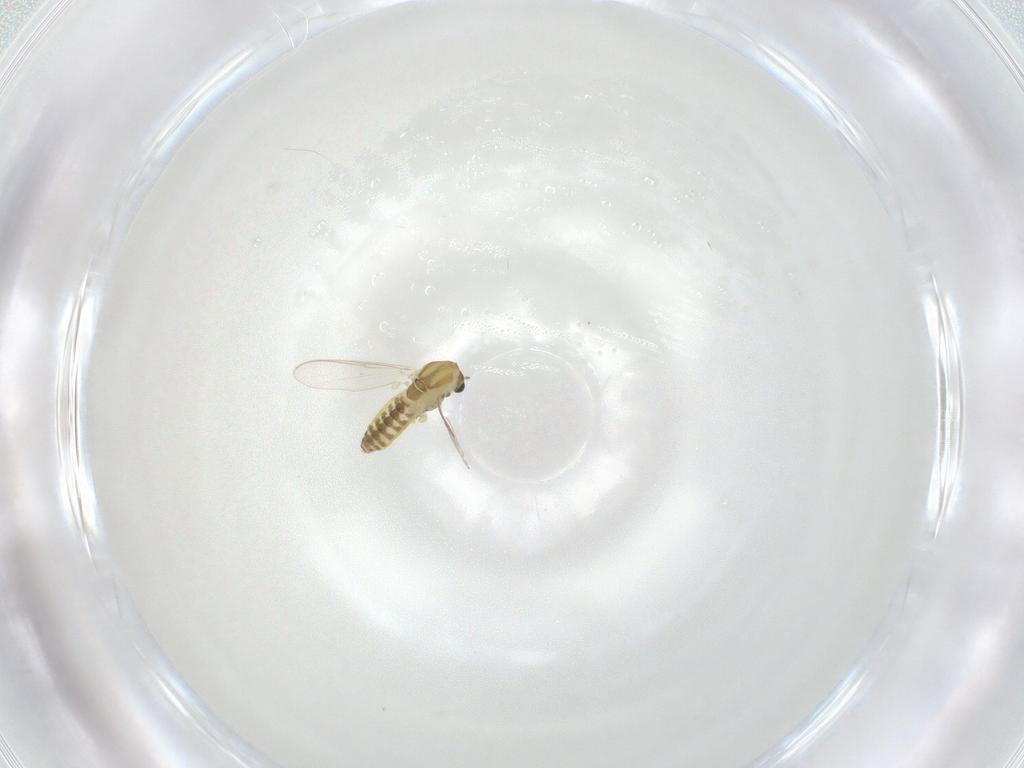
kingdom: Animalia
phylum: Arthropoda
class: Insecta
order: Diptera
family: Chironomidae
